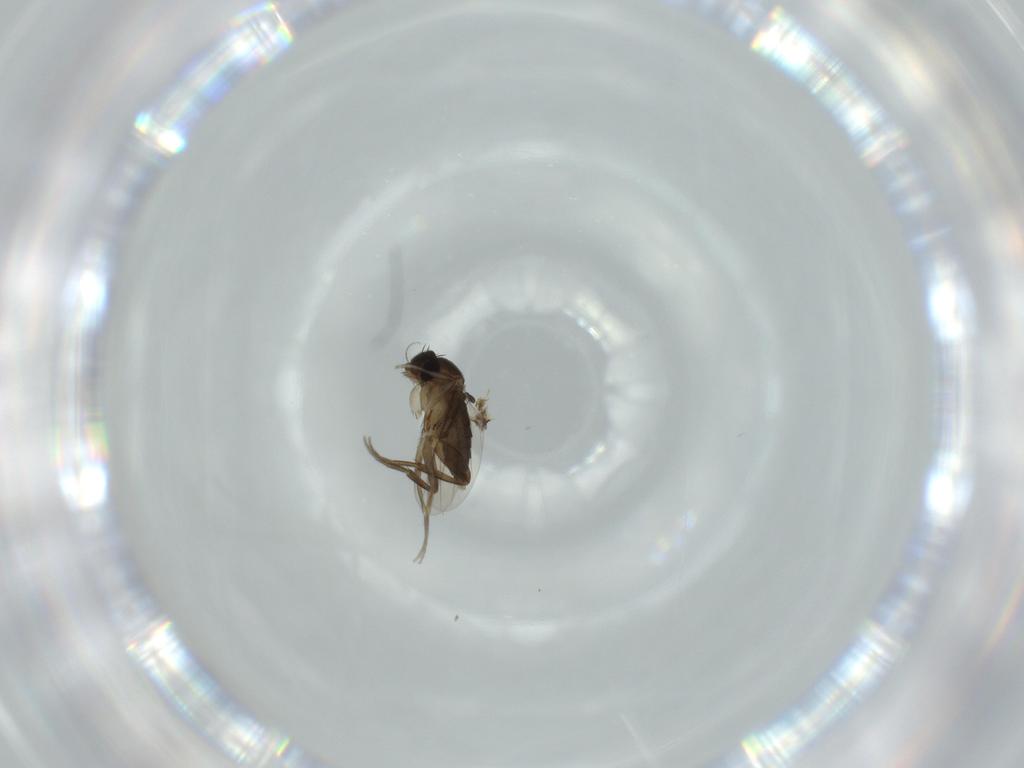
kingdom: Animalia
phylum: Arthropoda
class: Insecta
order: Diptera
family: Phoridae
